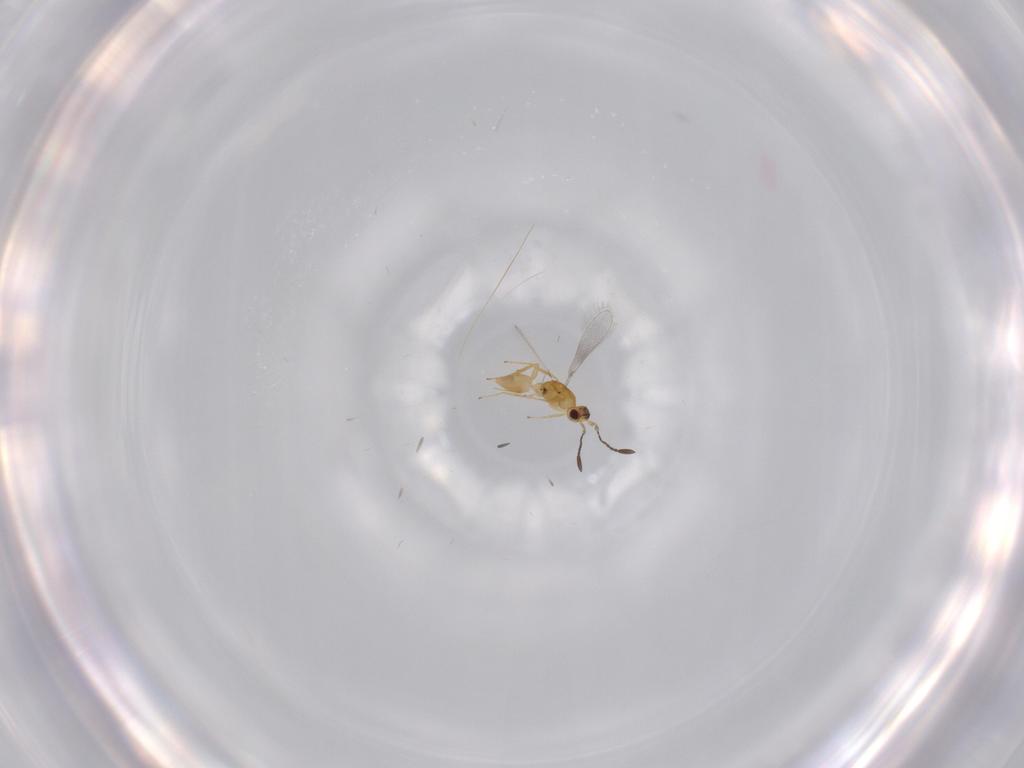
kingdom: Animalia
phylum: Arthropoda
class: Insecta
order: Hymenoptera
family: Mymaridae
